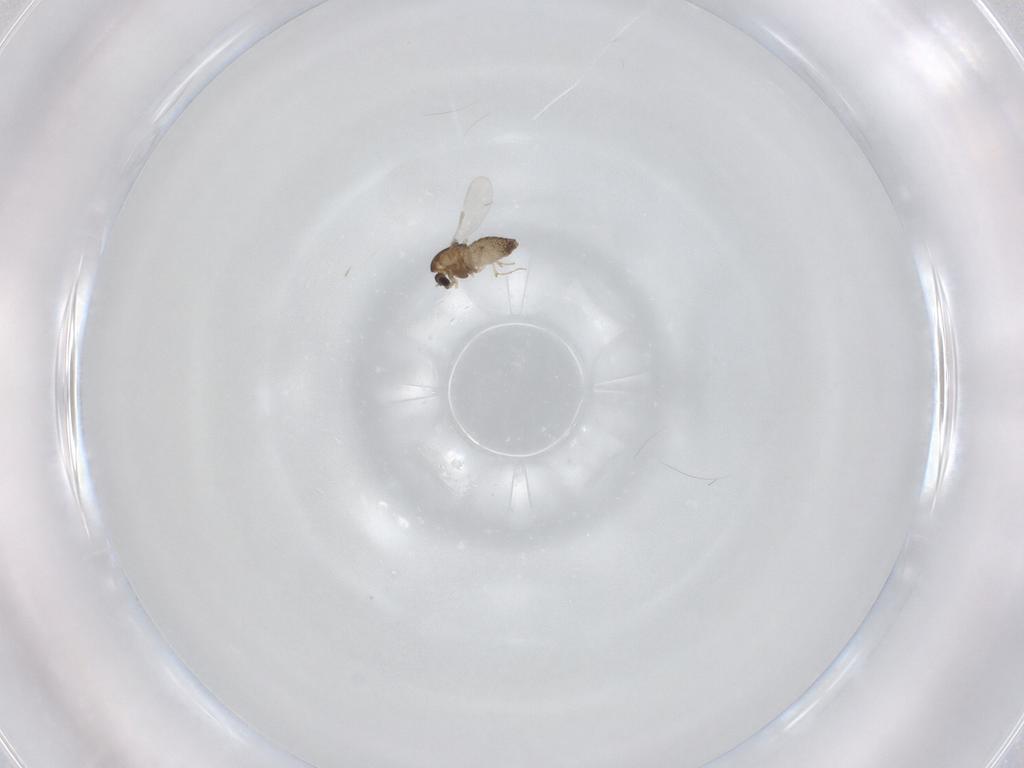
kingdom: Animalia
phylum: Arthropoda
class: Insecta
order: Diptera
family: Chironomidae
